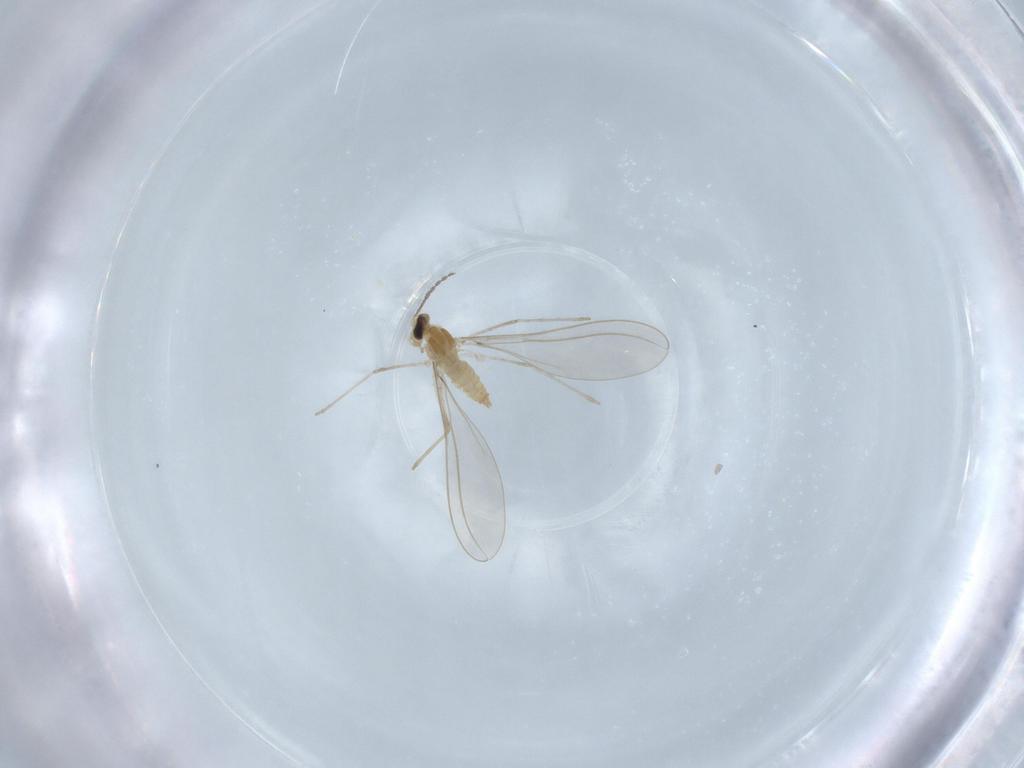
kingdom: Animalia
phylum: Arthropoda
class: Insecta
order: Diptera
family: Cecidomyiidae
